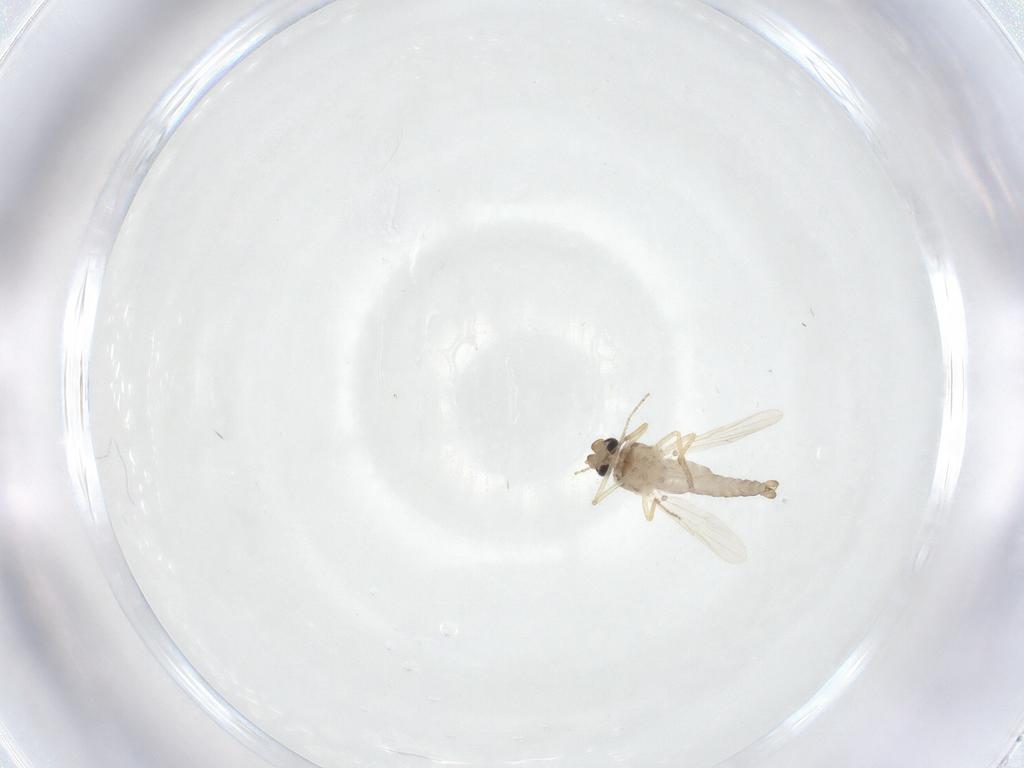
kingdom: Animalia
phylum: Arthropoda
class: Insecta
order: Diptera
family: Ceratopogonidae
